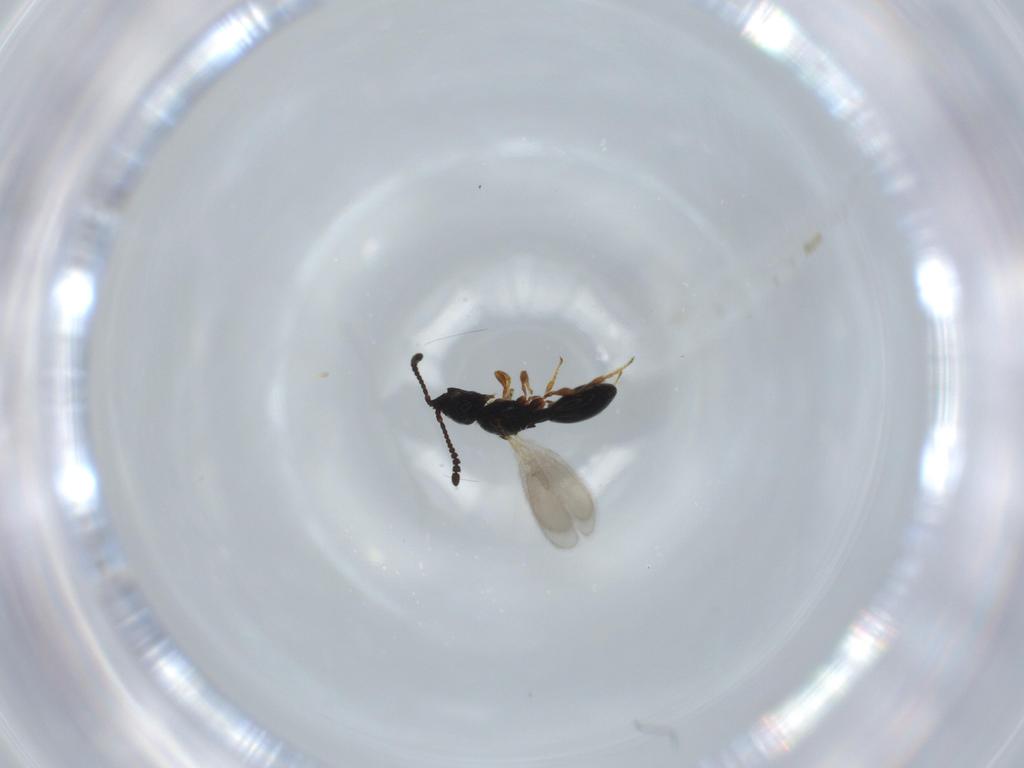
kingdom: Animalia
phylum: Arthropoda
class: Insecta
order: Hymenoptera
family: Diapriidae
